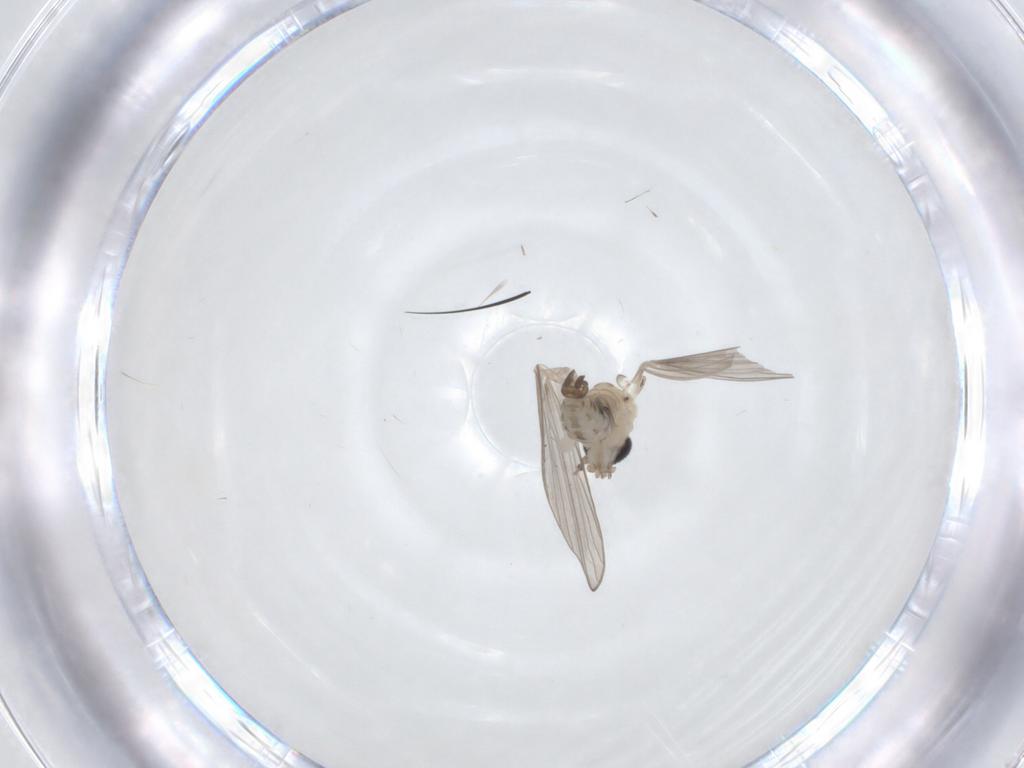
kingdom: Animalia
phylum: Arthropoda
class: Insecta
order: Diptera
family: Psychodidae
